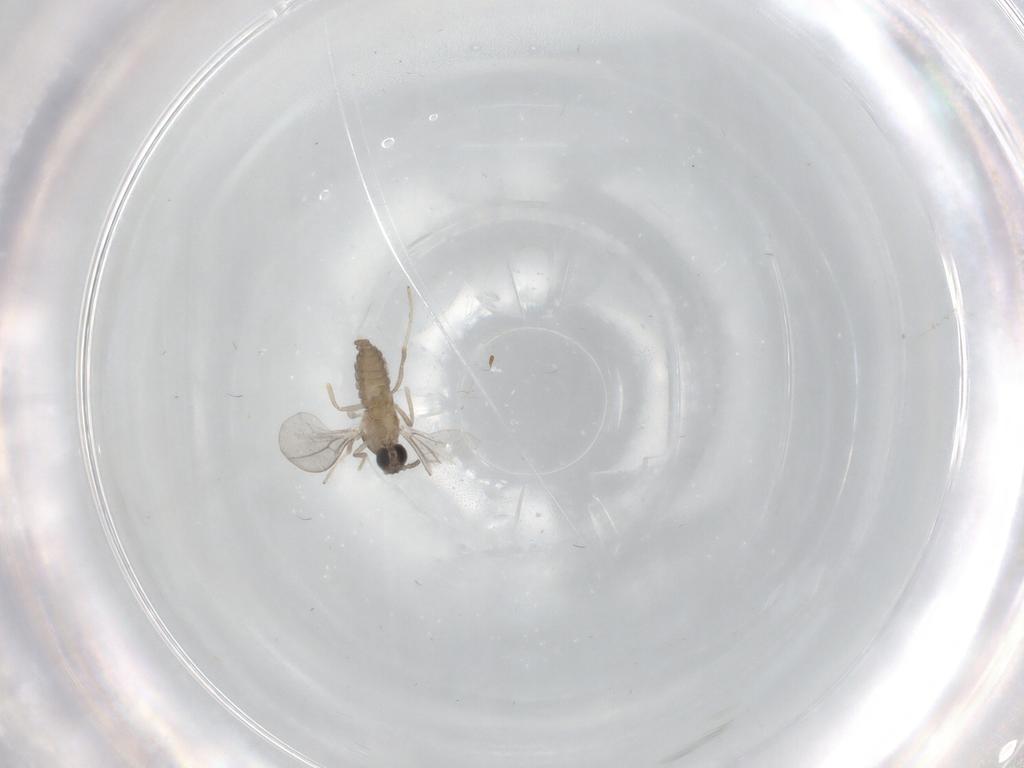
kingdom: Animalia
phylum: Arthropoda
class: Insecta
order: Diptera
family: Cecidomyiidae
